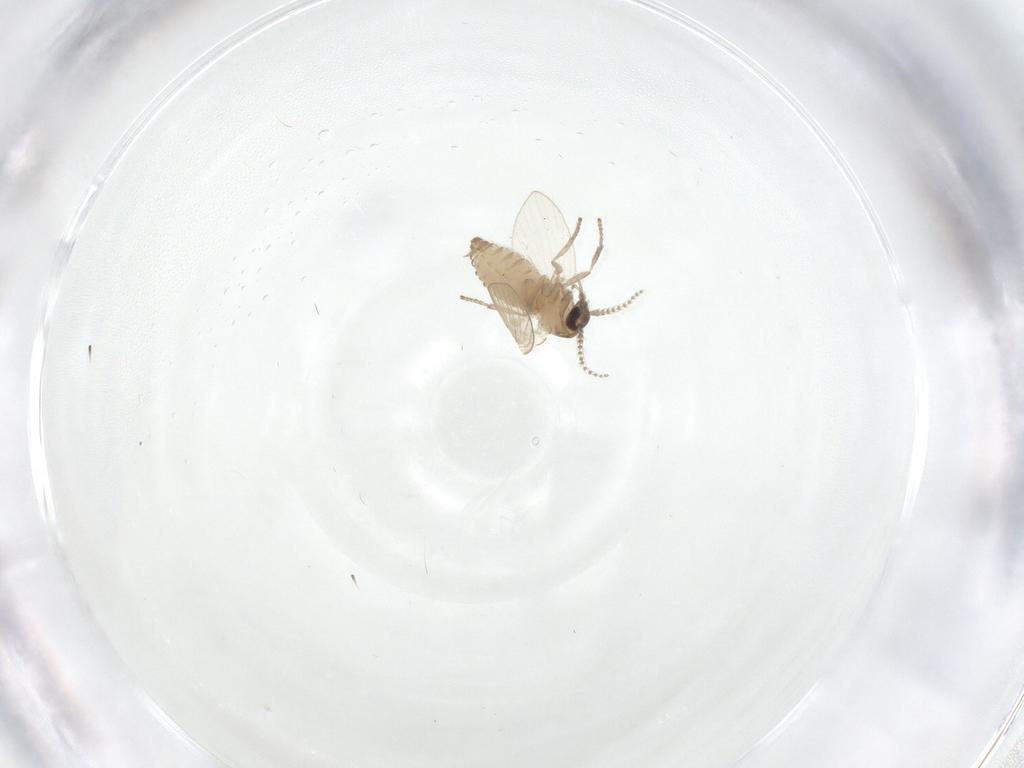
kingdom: Animalia
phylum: Arthropoda
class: Insecta
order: Diptera
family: Psychodidae
